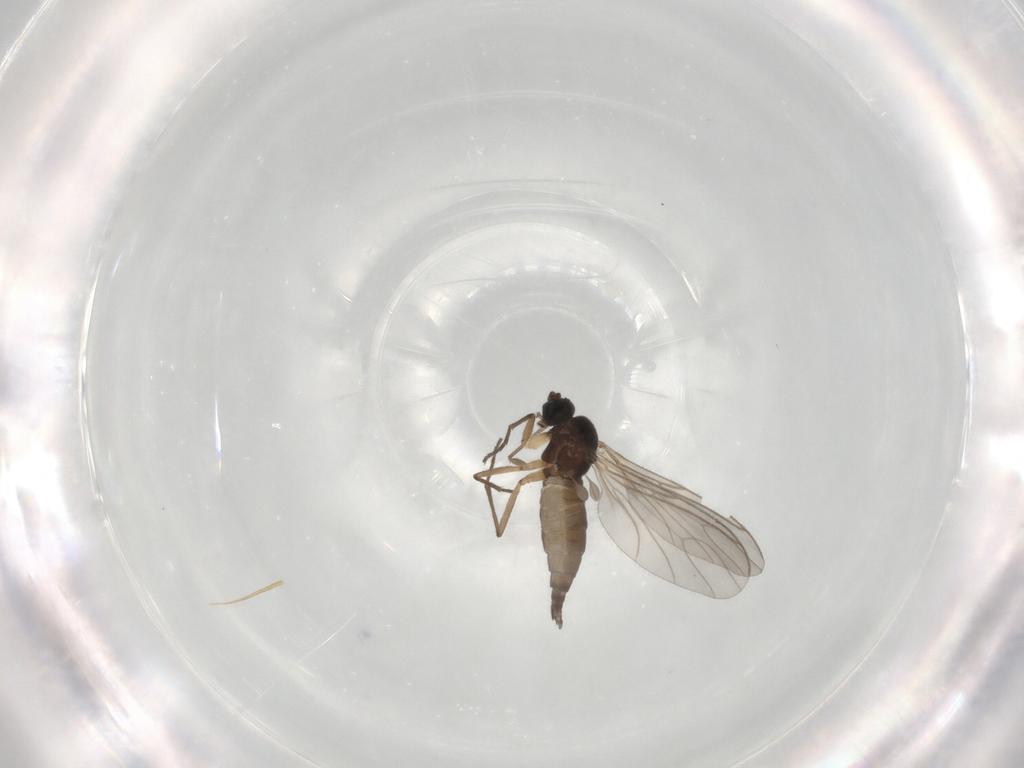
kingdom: Animalia
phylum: Arthropoda
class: Insecta
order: Diptera
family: Sciaridae
